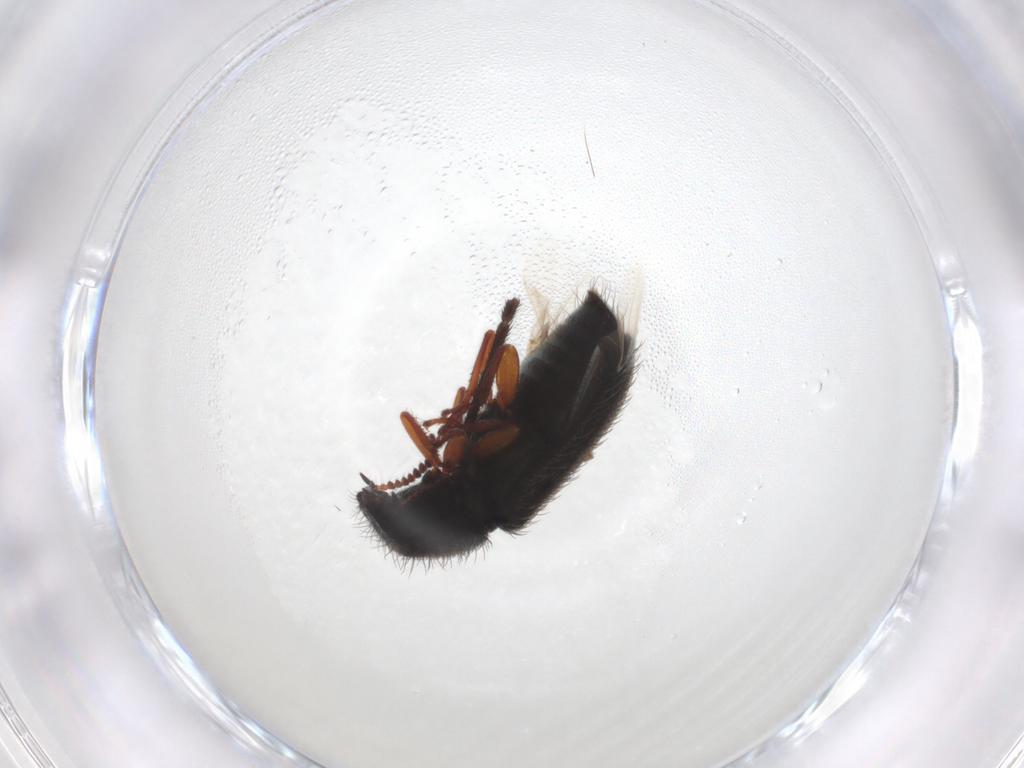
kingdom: Animalia
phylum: Arthropoda
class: Insecta
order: Coleoptera
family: Melyridae
